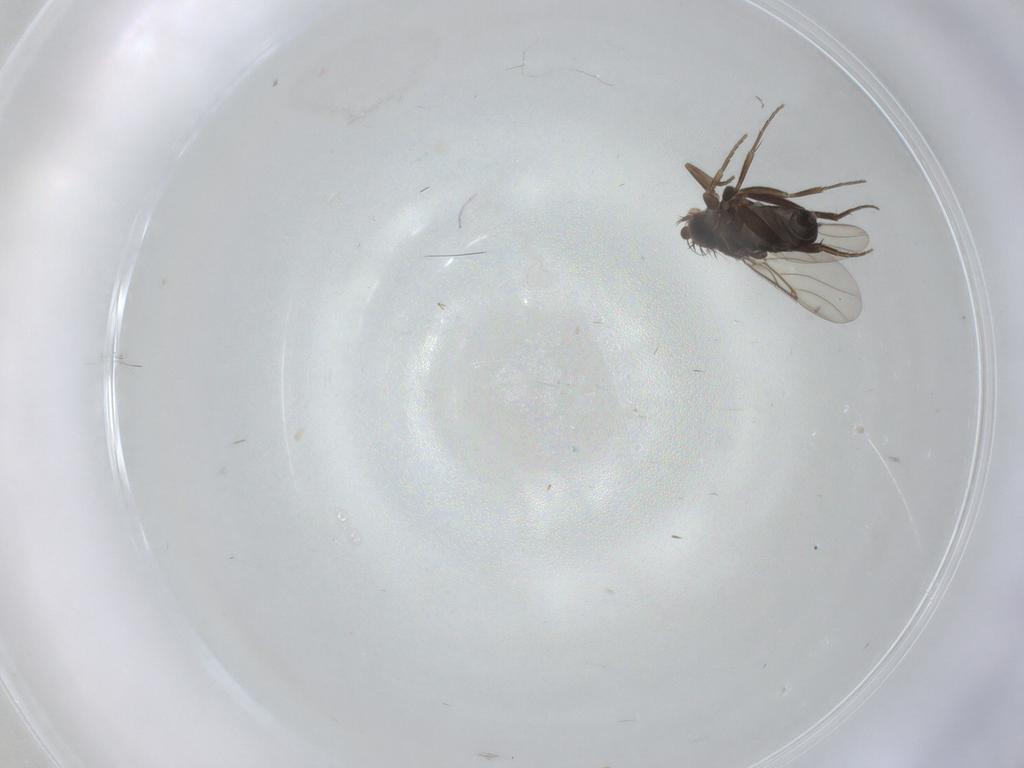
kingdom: Animalia
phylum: Arthropoda
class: Insecta
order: Diptera
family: Phoridae
